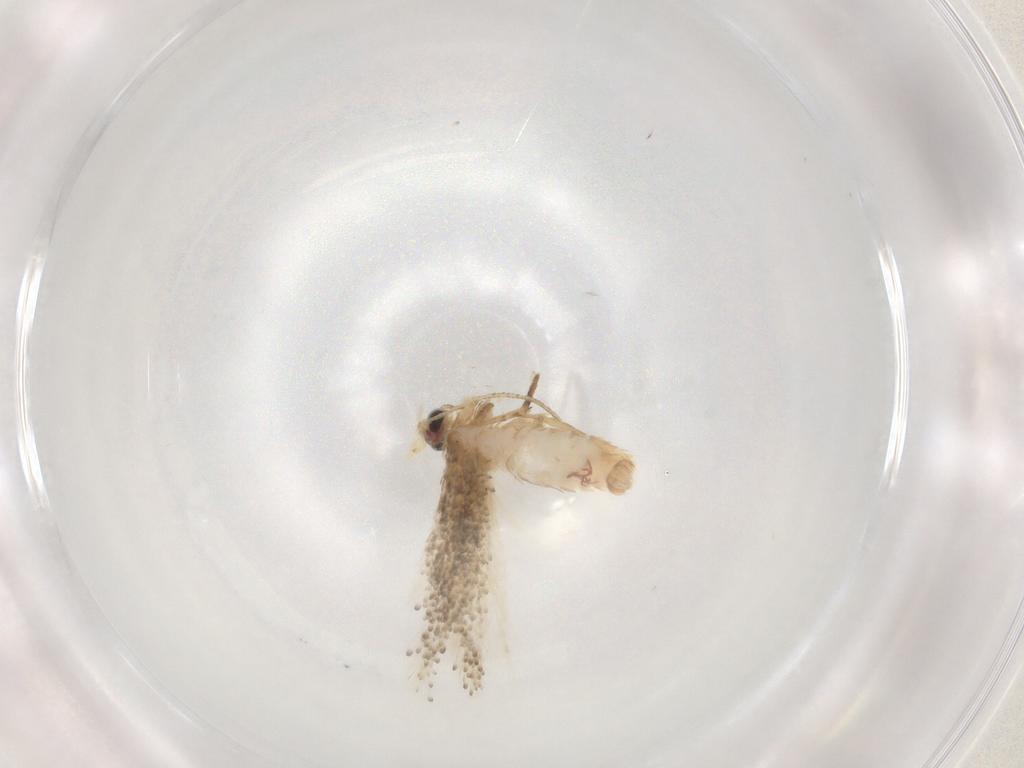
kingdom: Animalia
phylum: Arthropoda
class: Insecta
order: Lepidoptera
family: Nepticulidae
